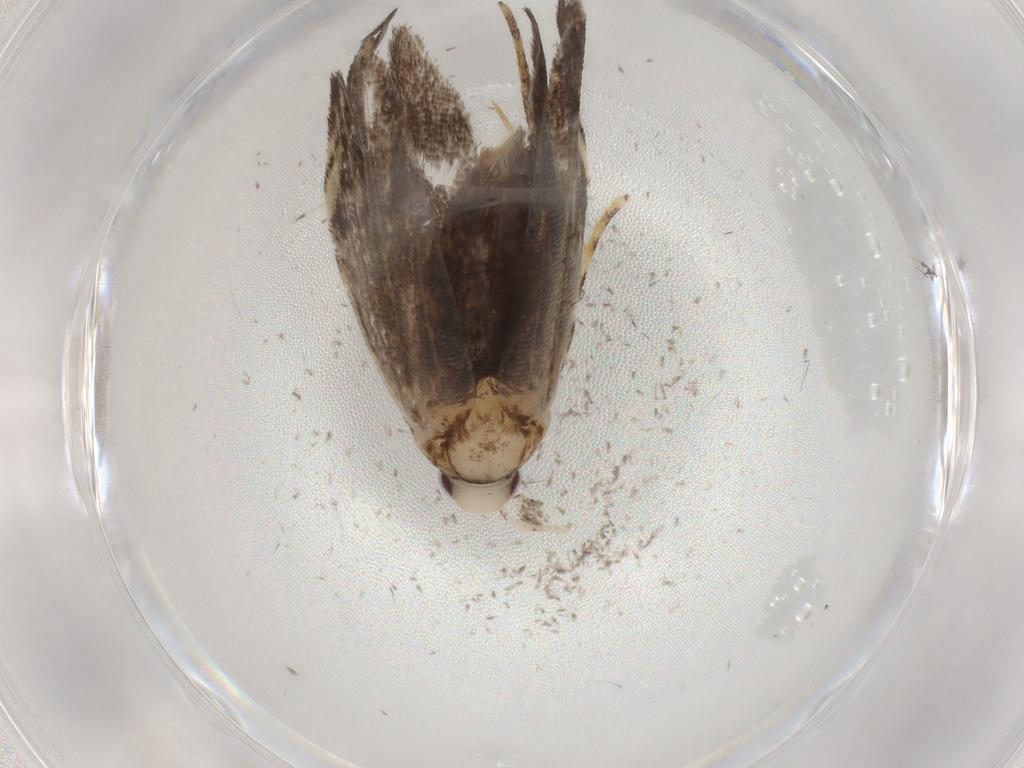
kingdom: Animalia
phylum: Arthropoda
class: Insecta
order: Lepidoptera
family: Gelechiidae
